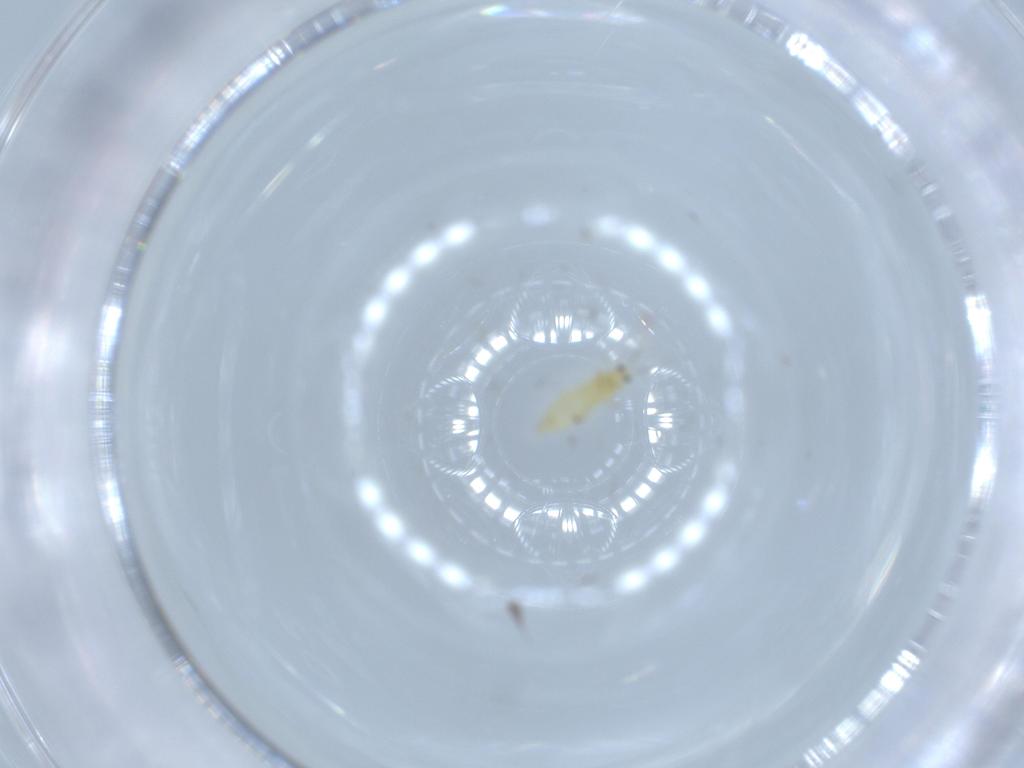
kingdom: Animalia
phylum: Arthropoda
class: Insecta
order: Thysanoptera
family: Thripidae
